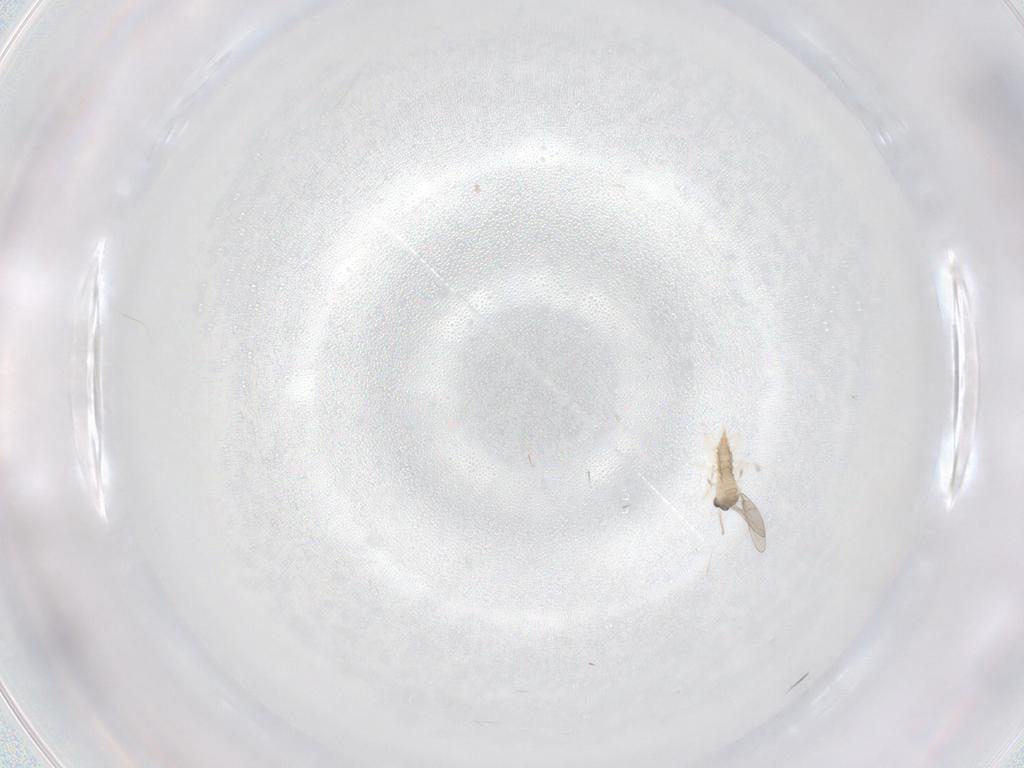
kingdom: Animalia
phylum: Arthropoda
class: Insecta
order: Diptera
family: Cecidomyiidae
